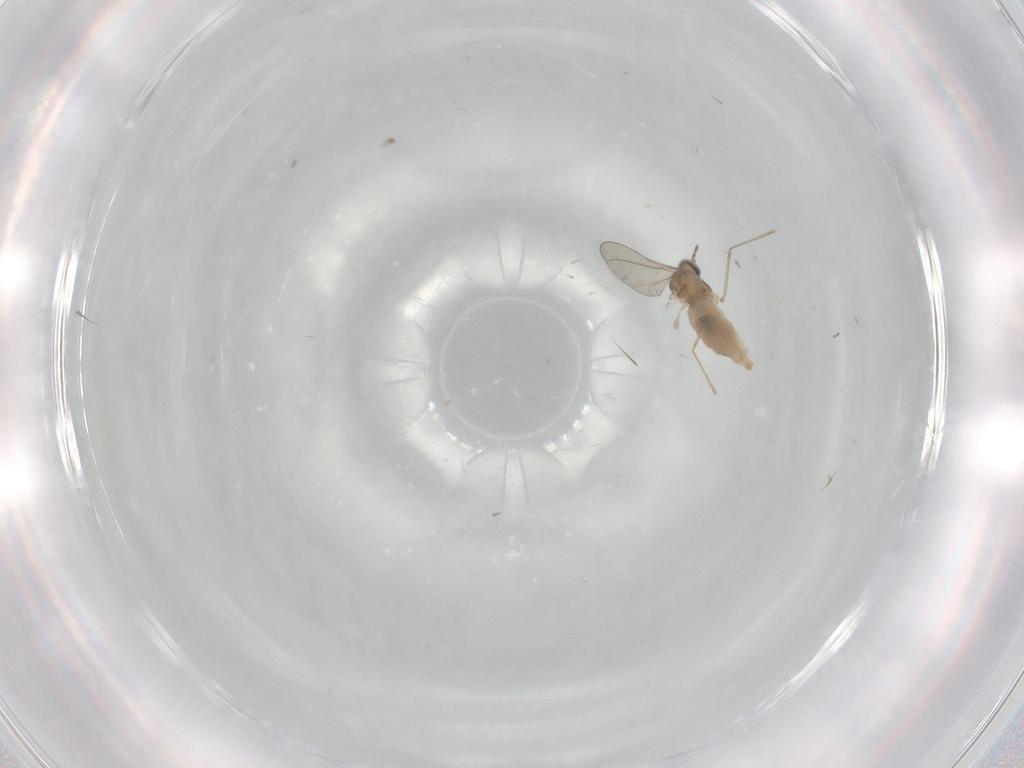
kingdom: Animalia
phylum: Arthropoda
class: Insecta
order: Diptera
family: Cecidomyiidae
